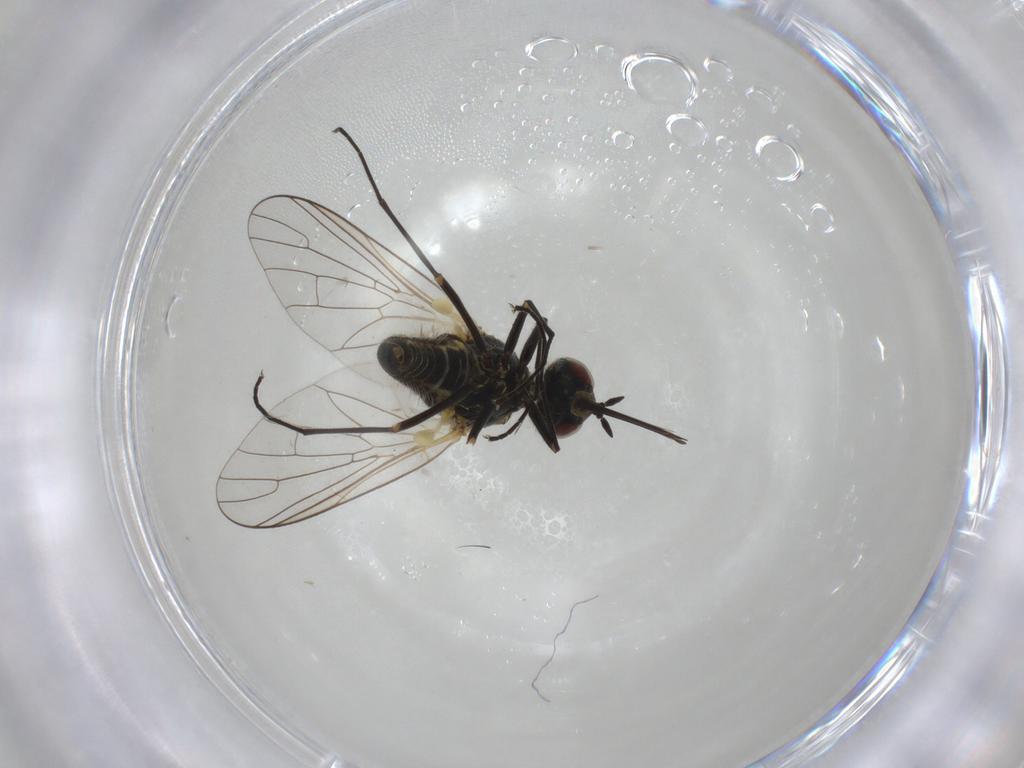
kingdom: Animalia
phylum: Arthropoda
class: Insecta
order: Diptera
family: Bombyliidae
